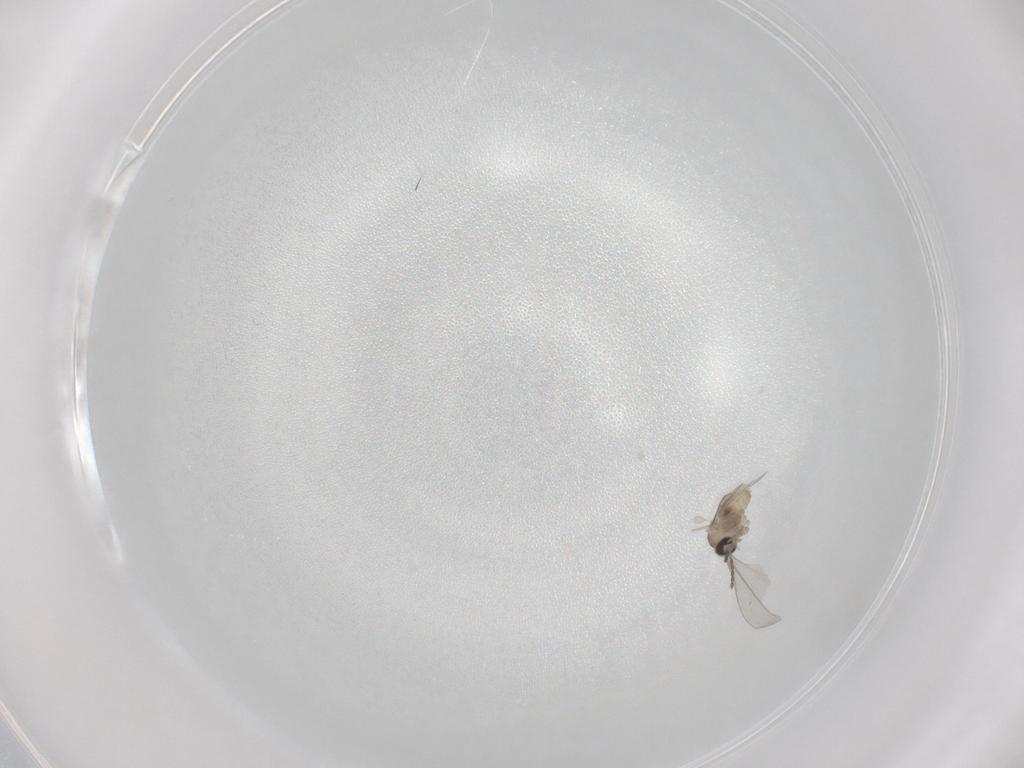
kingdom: Animalia
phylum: Arthropoda
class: Insecta
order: Diptera
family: Cecidomyiidae
